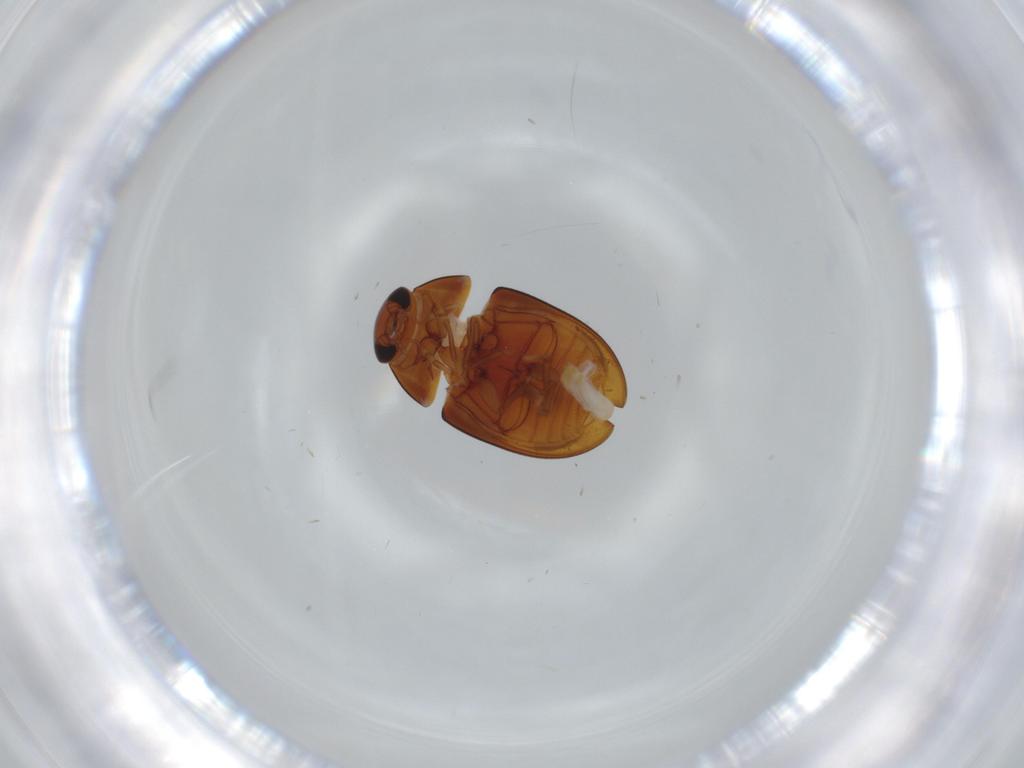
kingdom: Animalia
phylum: Arthropoda
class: Insecta
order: Coleoptera
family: Phalacridae
